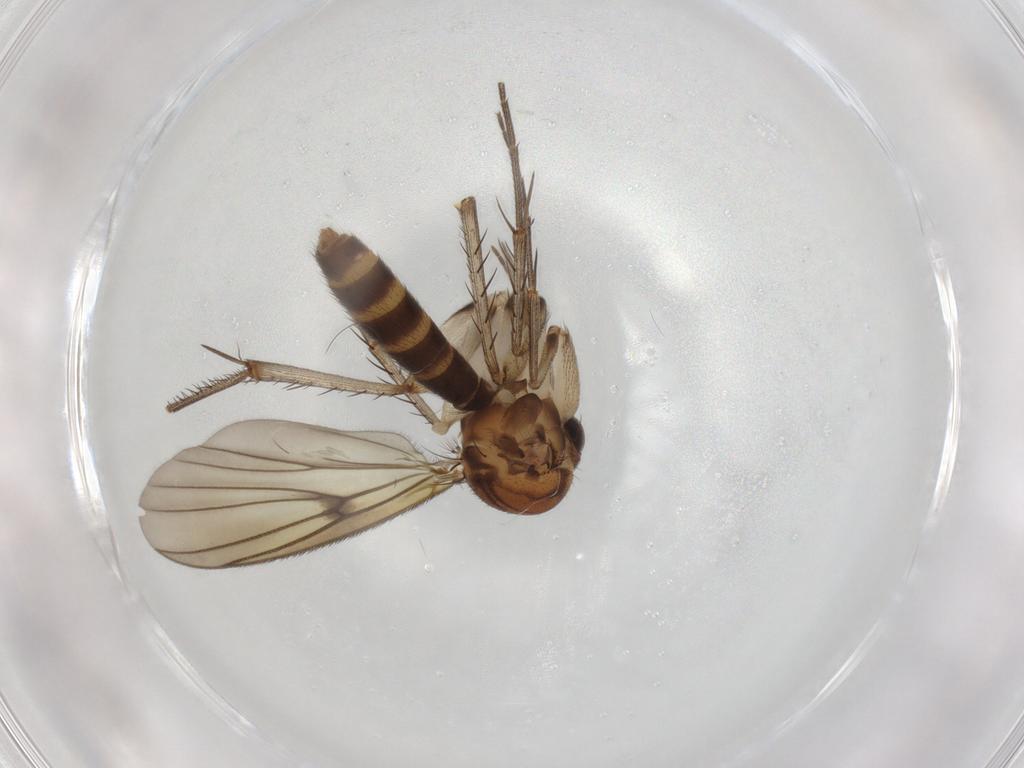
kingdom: Animalia
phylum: Arthropoda
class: Insecta
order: Diptera
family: Mycetophilidae
